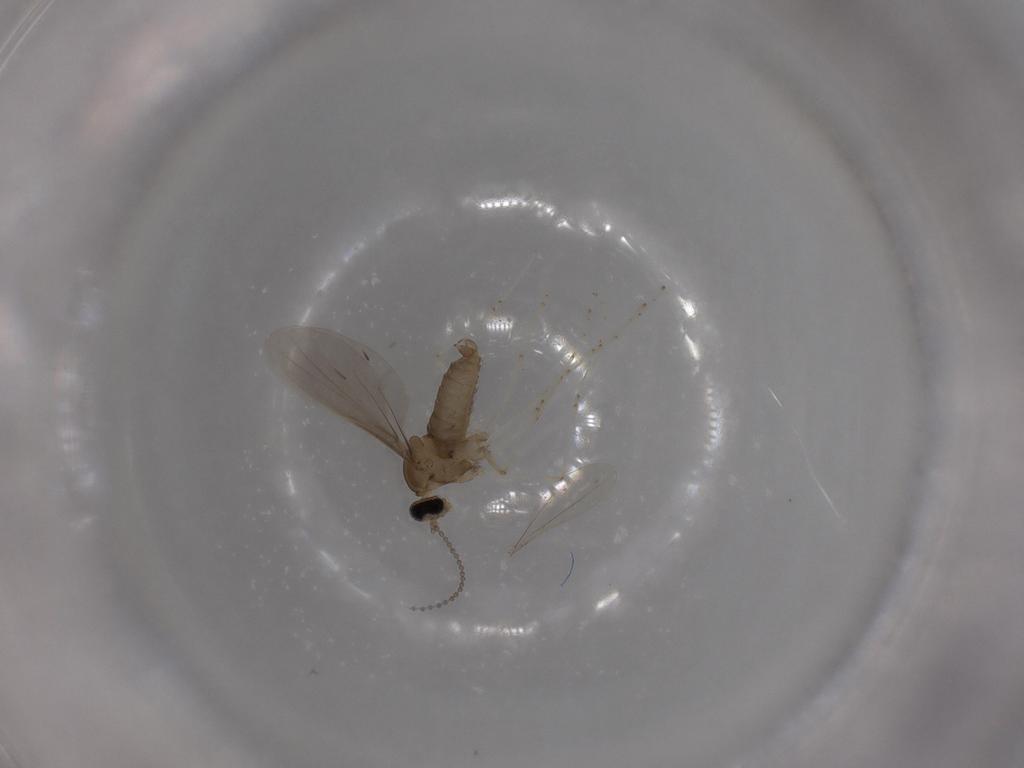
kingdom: Animalia
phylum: Arthropoda
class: Insecta
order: Diptera
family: Cecidomyiidae
